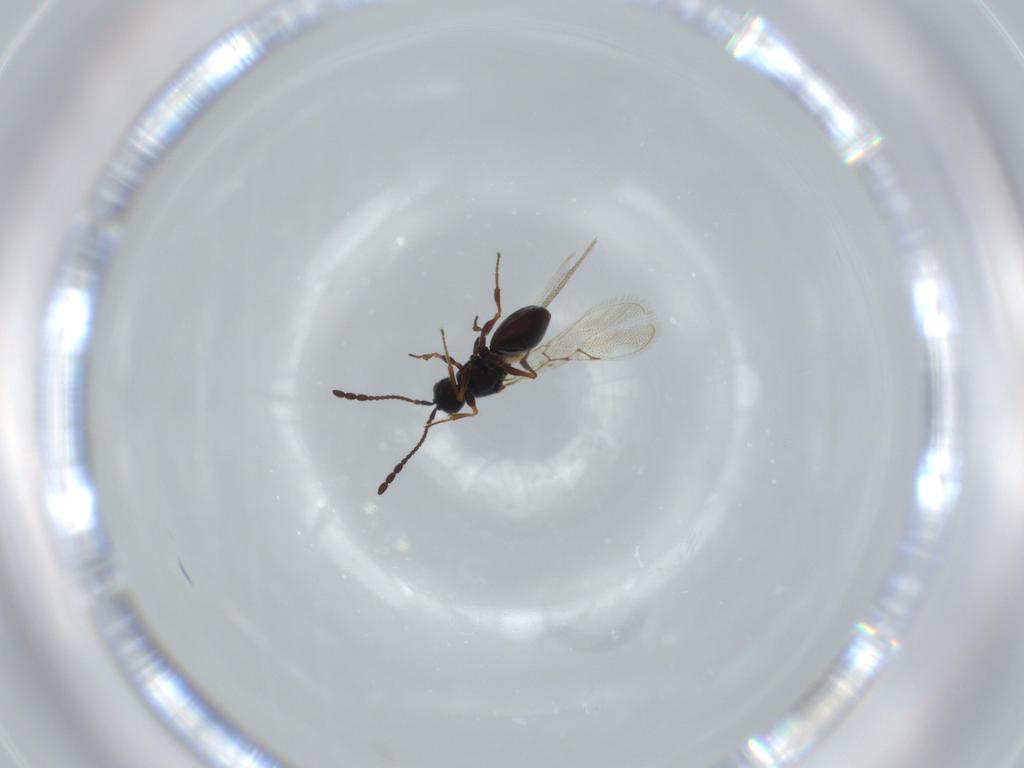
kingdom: Animalia
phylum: Arthropoda
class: Insecta
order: Hymenoptera
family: Figitidae
